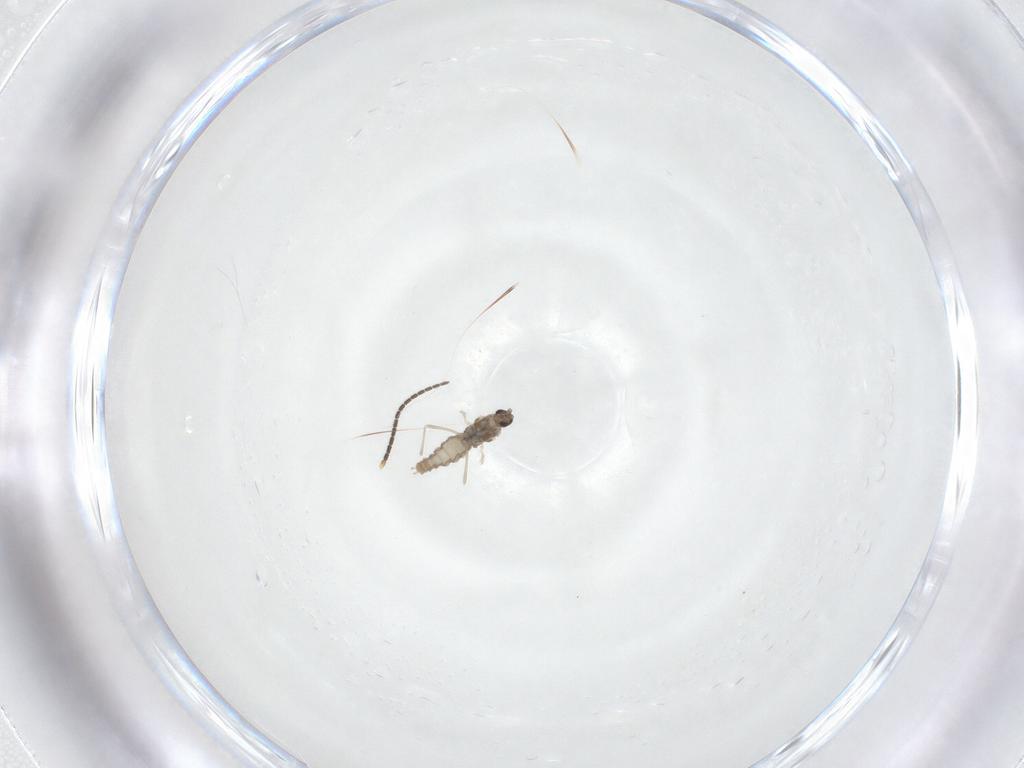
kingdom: Animalia
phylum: Arthropoda
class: Insecta
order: Diptera
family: Cecidomyiidae
